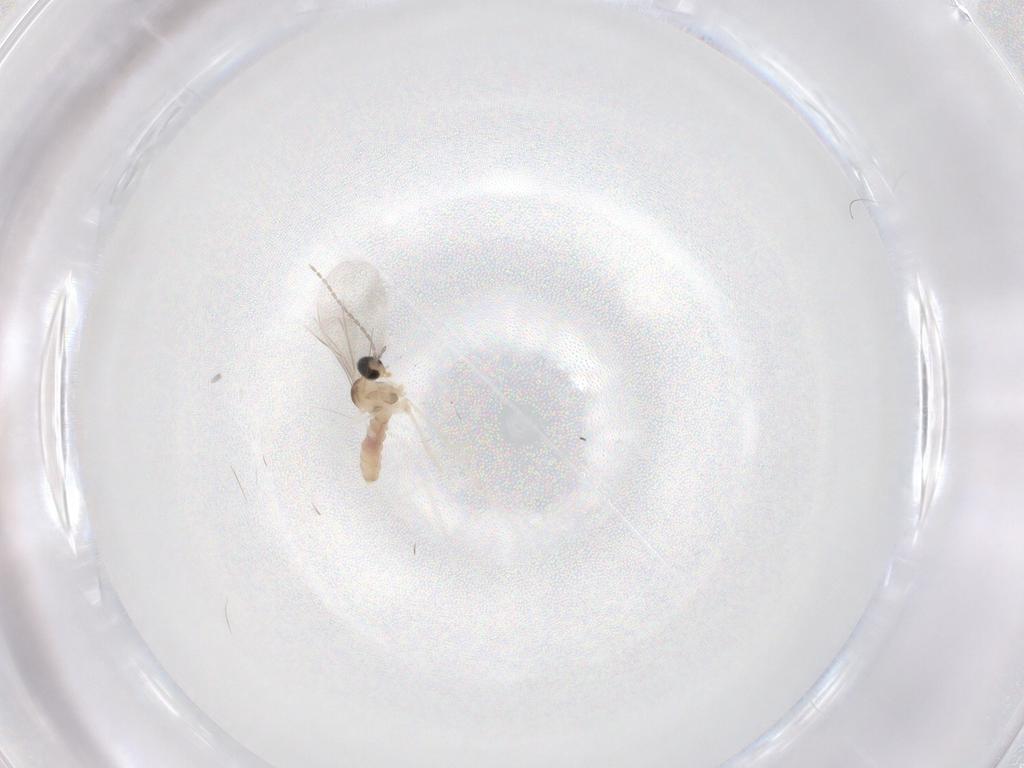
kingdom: Animalia
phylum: Arthropoda
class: Insecta
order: Diptera
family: Cecidomyiidae
